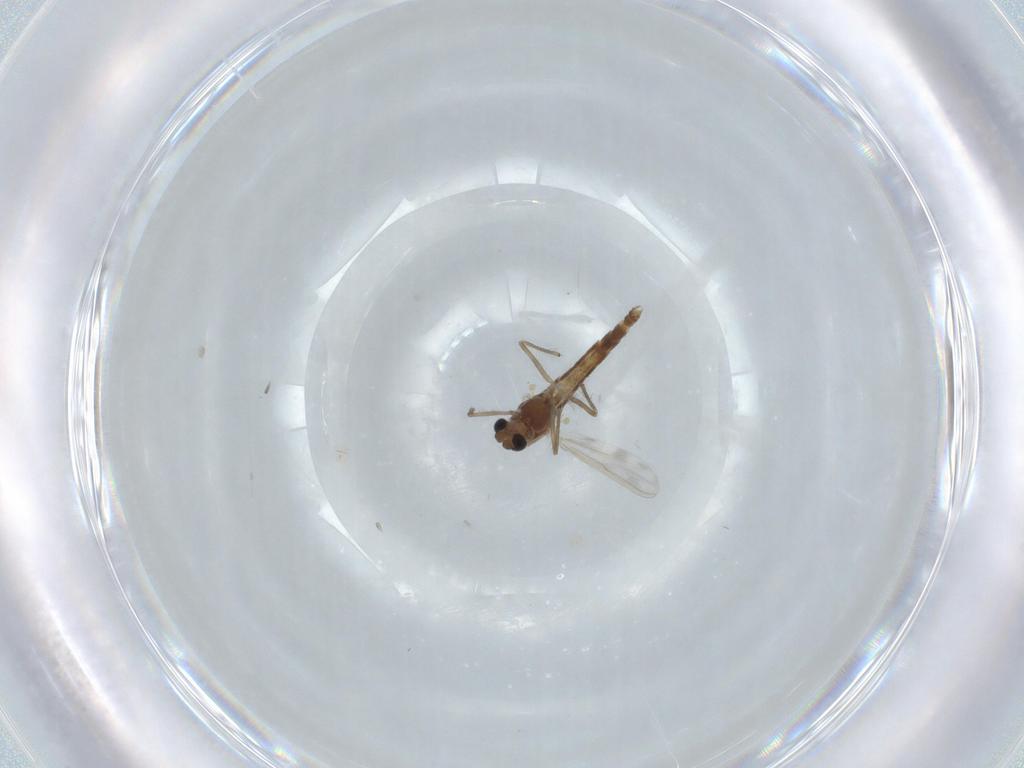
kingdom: Animalia
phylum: Arthropoda
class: Insecta
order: Diptera
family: Chironomidae
